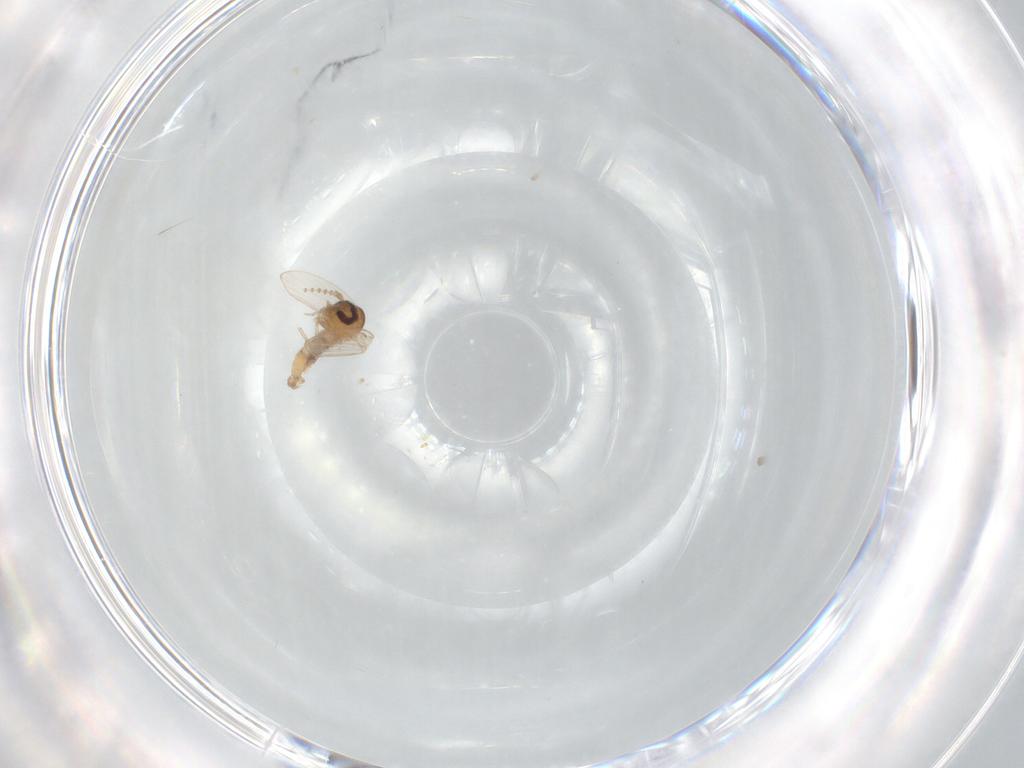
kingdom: Animalia
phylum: Arthropoda
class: Insecta
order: Diptera
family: Psychodidae
